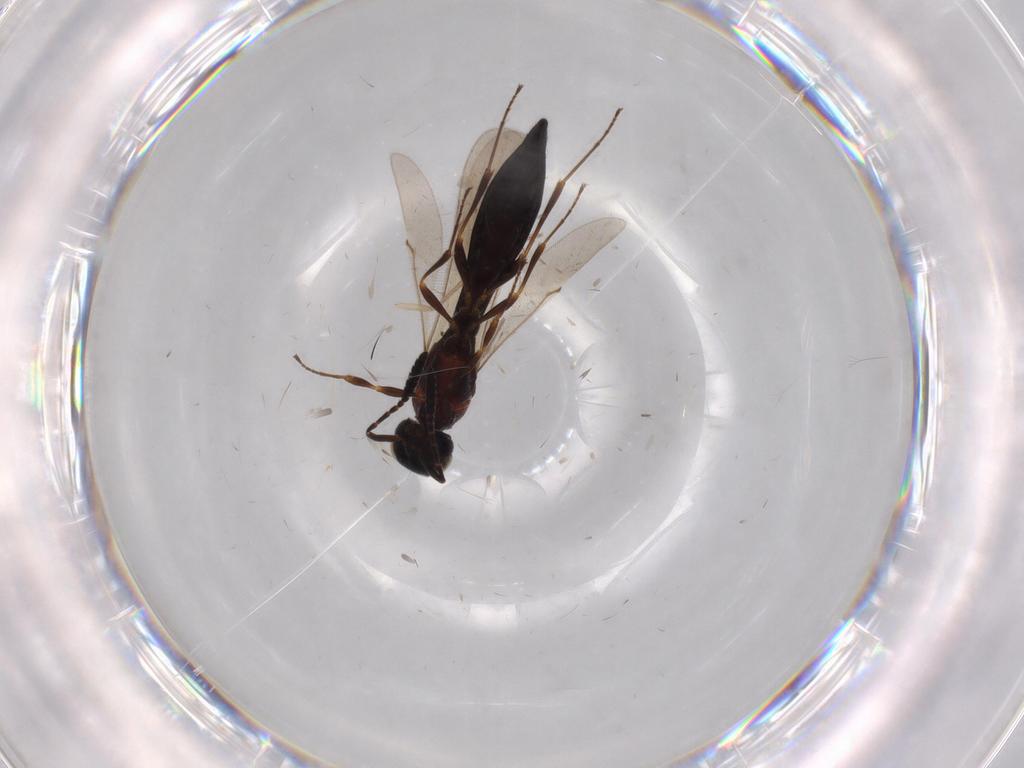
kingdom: Animalia
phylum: Arthropoda
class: Insecta
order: Hymenoptera
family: Scelionidae
